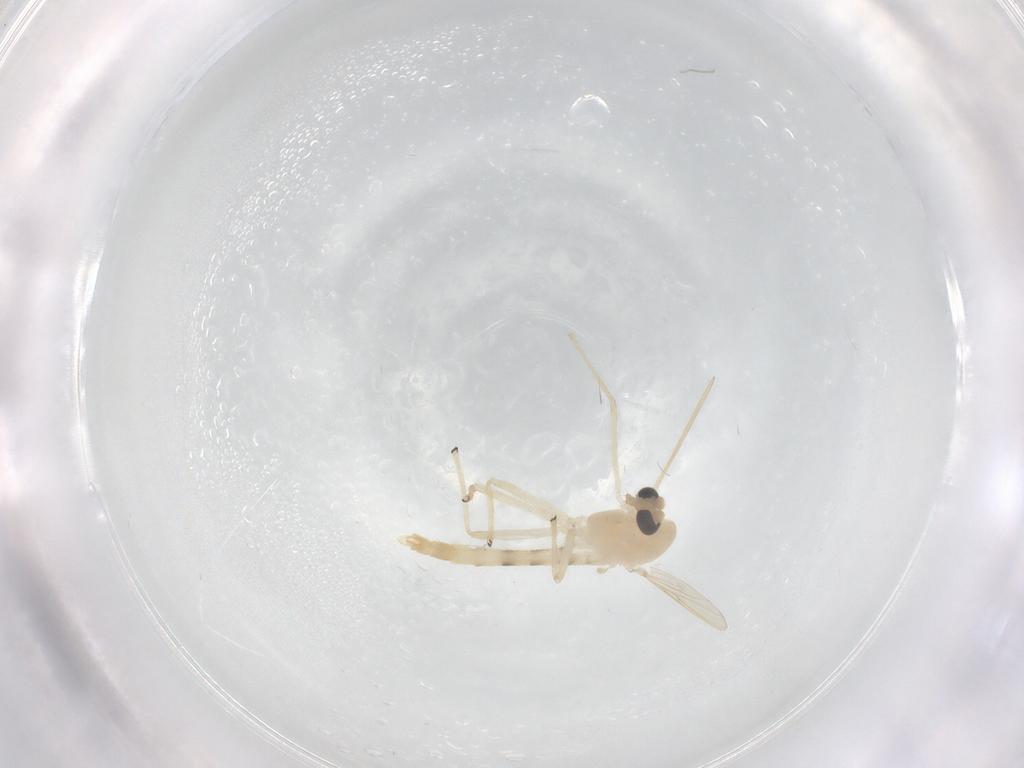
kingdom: Animalia
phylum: Arthropoda
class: Insecta
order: Diptera
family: Chironomidae
